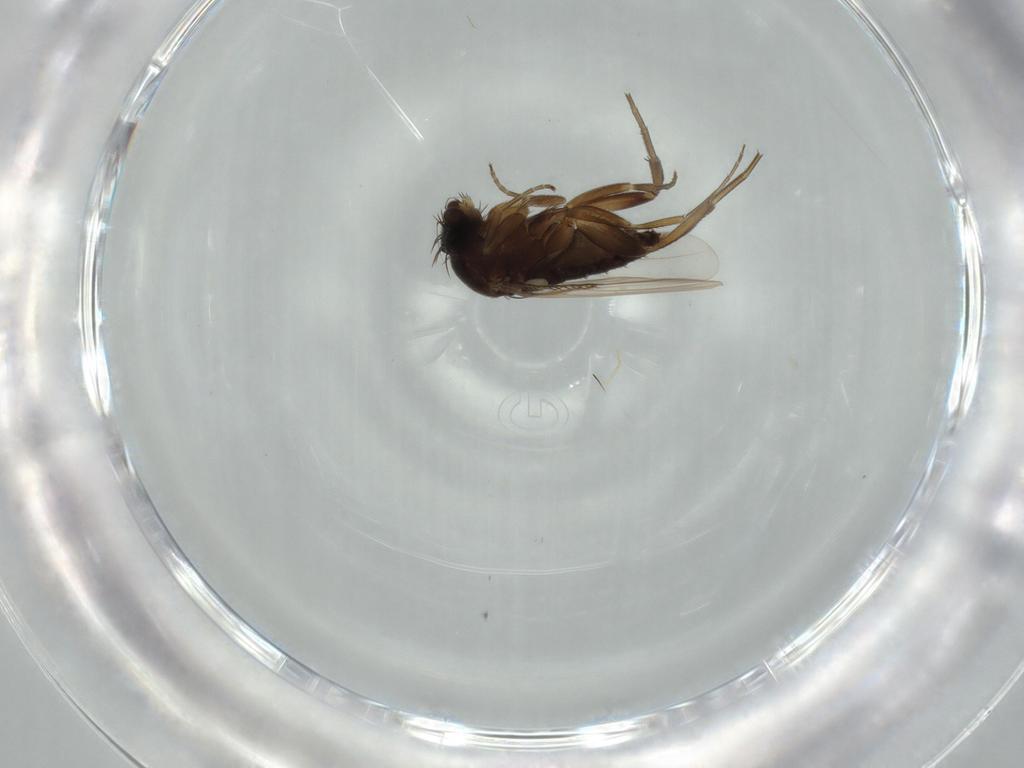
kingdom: Animalia
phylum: Arthropoda
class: Insecta
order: Diptera
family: Phoridae
